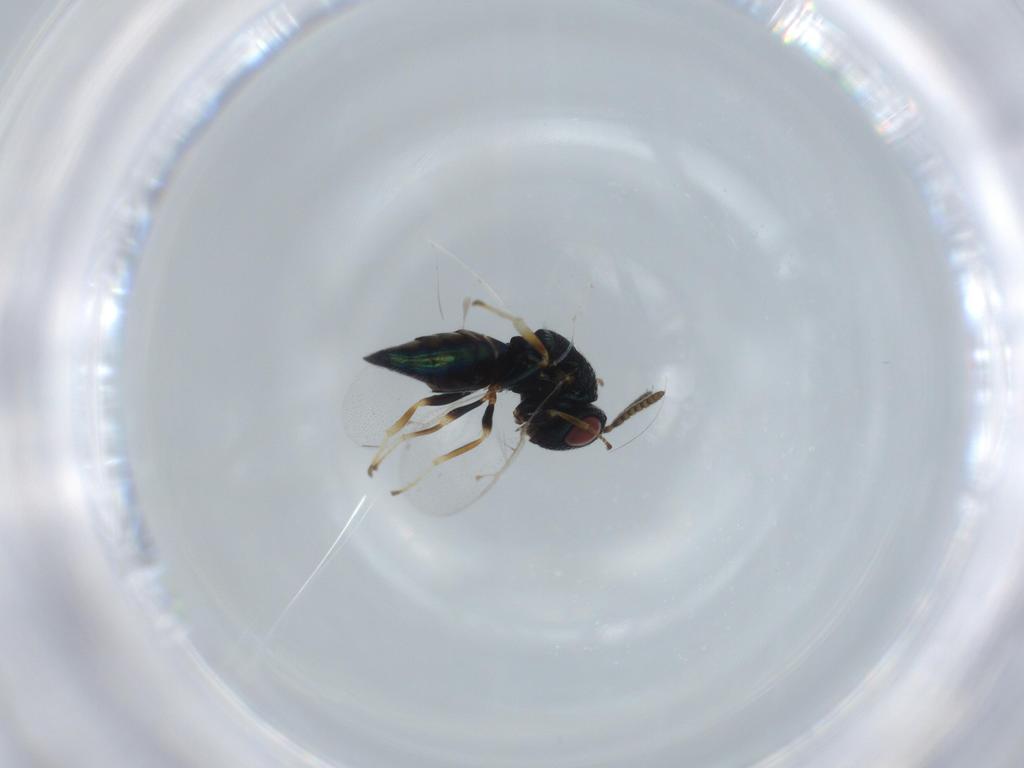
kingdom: Animalia
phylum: Arthropoda
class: Insecta
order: Hymenoptera
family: Pteromalidae
